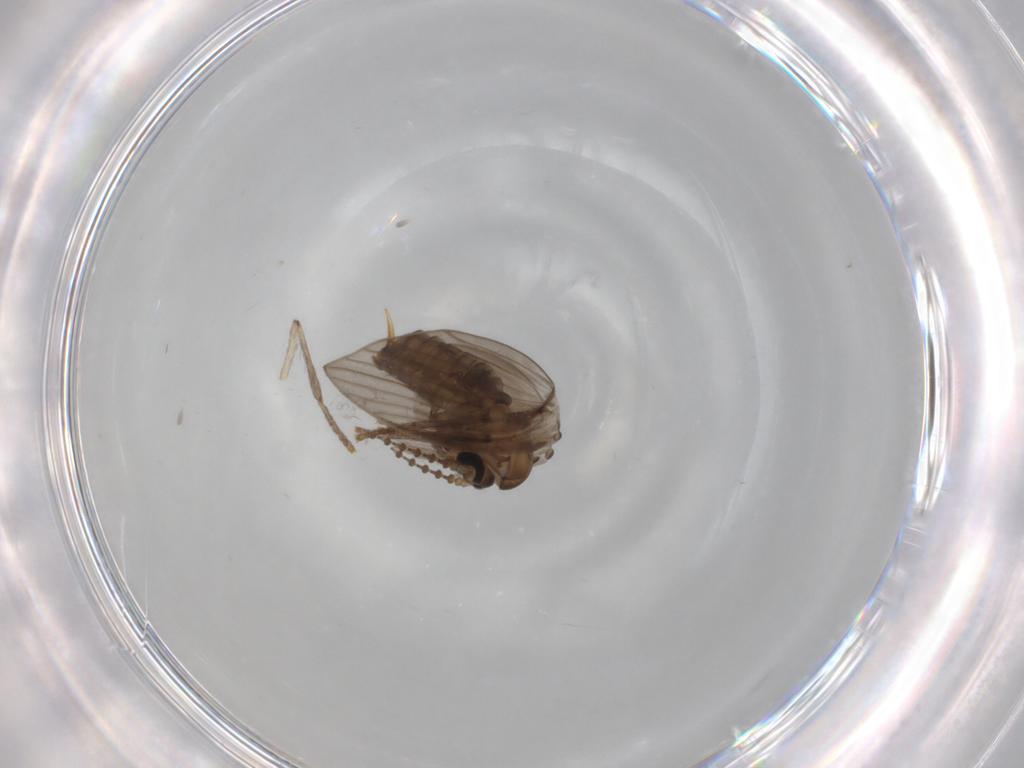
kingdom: Animalia
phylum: Arthropoda
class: Insecta
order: Diptera
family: Psychodidae
